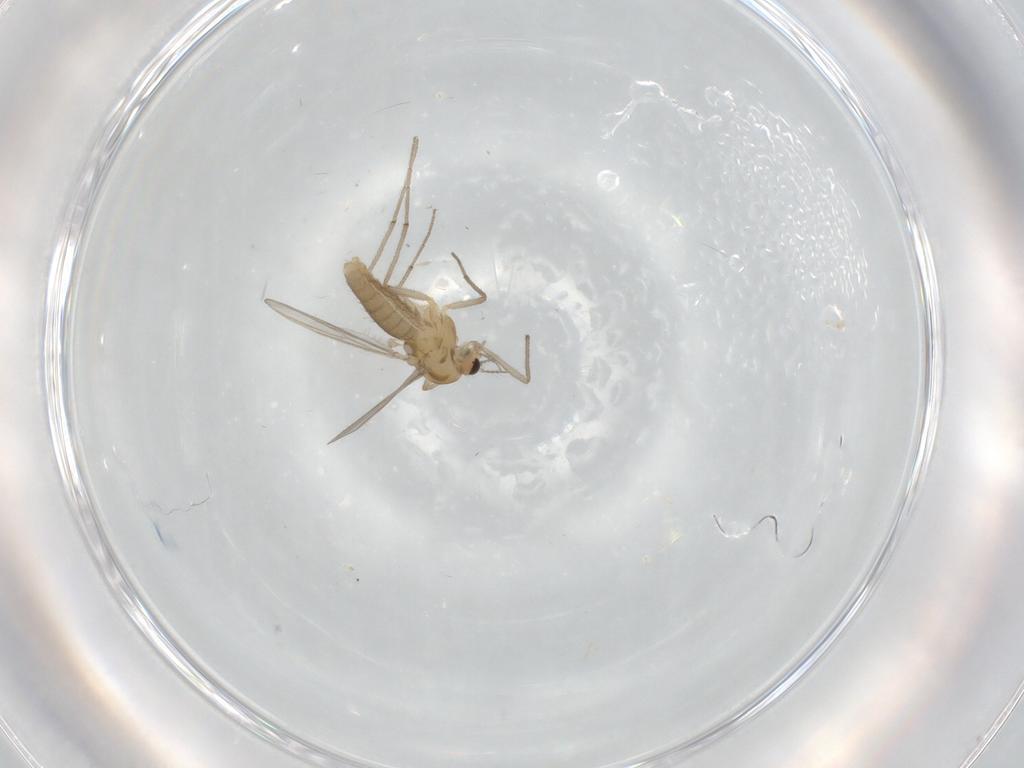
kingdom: Animalia
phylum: Arthropoda
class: Insecta
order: Diptera
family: Chironomidae
